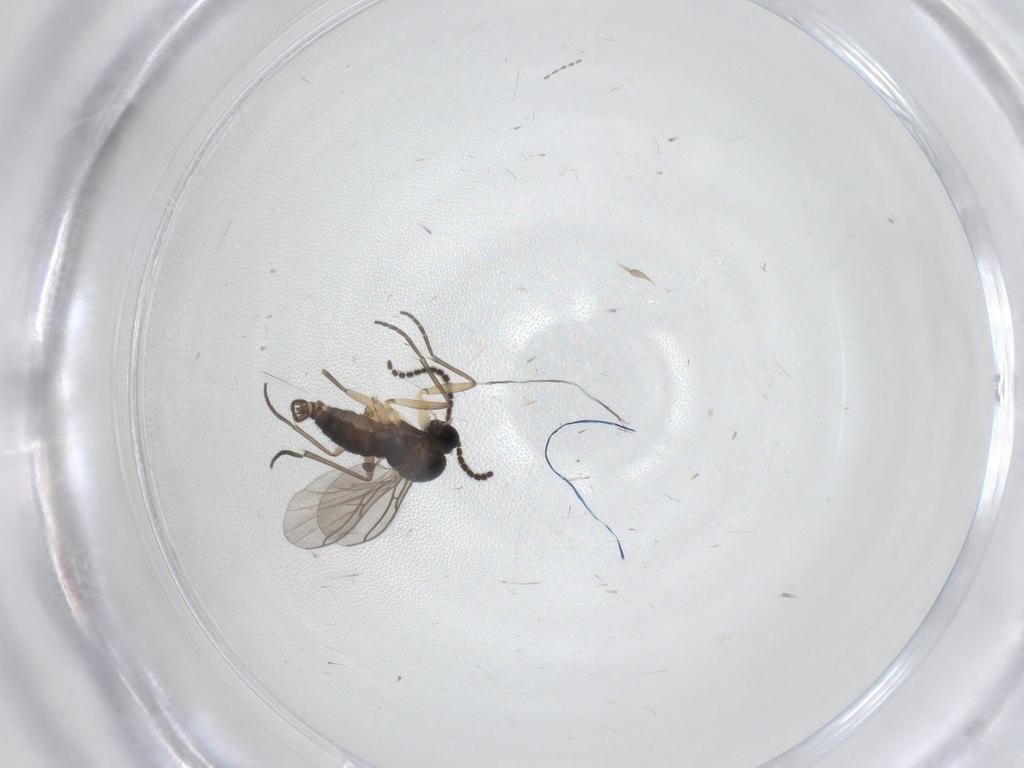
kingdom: Animalia
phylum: Arthropoda
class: Insecta
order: Diptera
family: Sciaridae
